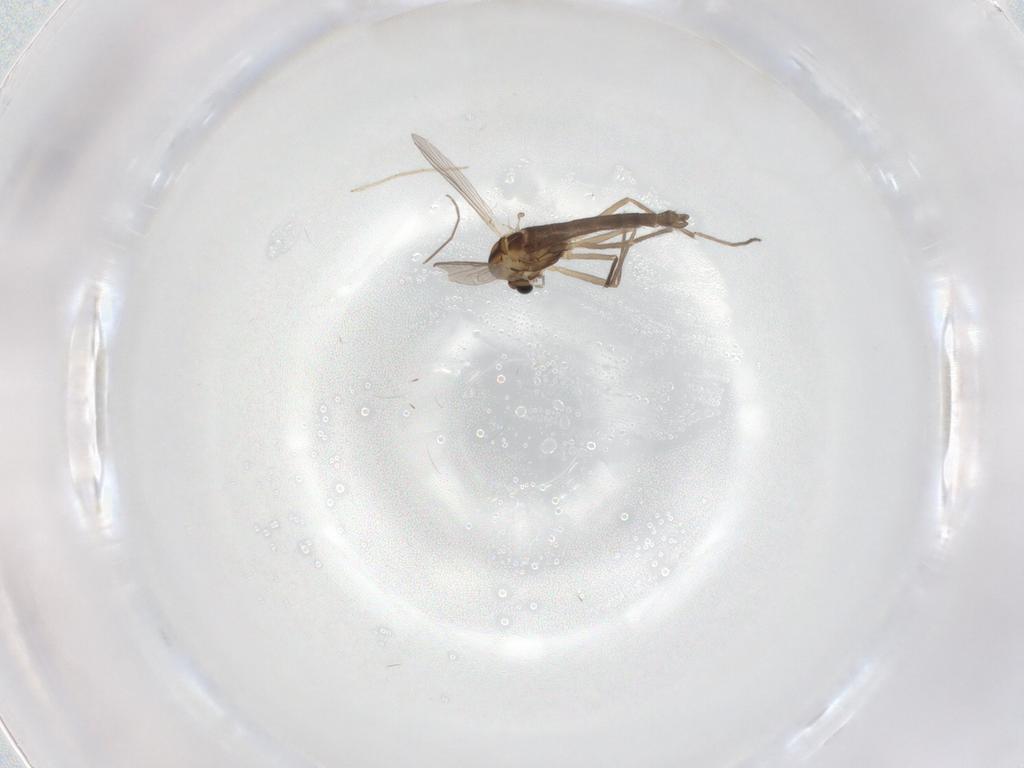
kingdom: Animalia
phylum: Arthropoda
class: Insecta
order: Diptera
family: Chironomidae
